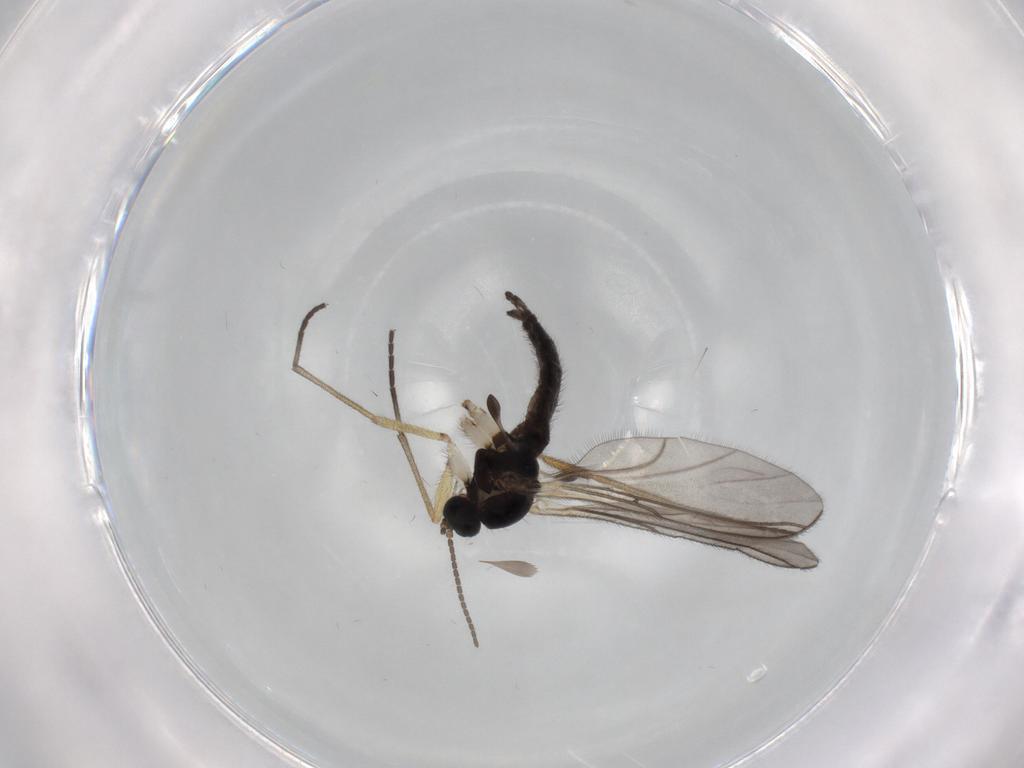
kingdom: Animalia
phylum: Arthropoda
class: Insecta
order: Diptera
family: Sciaridae
